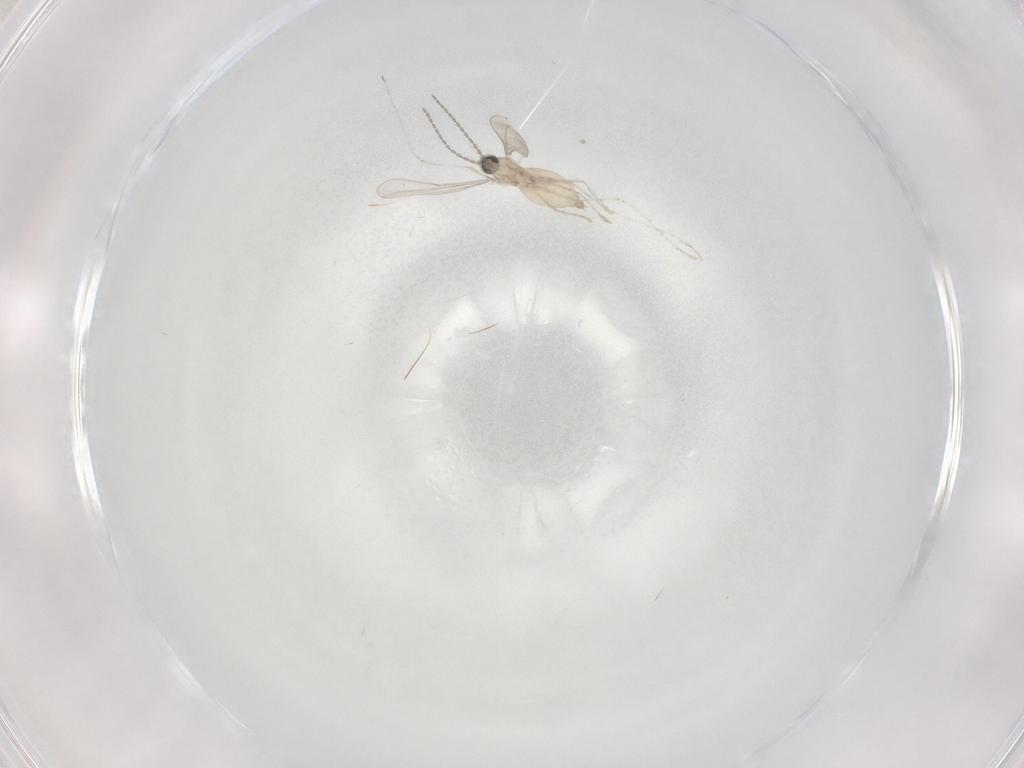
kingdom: Animalia
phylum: Arthropoda
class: Insecta
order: Diptera
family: Cecidomyiidae
